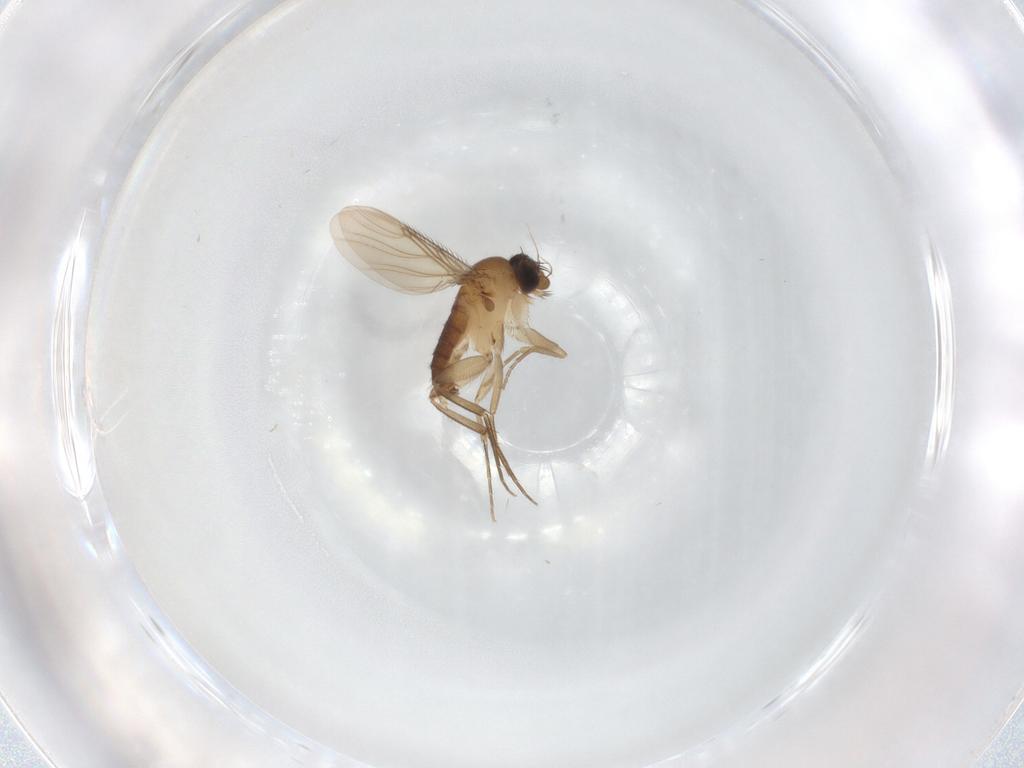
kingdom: Animalia
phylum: Arthropoda
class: Insecta
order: Diptera
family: Phoridae
